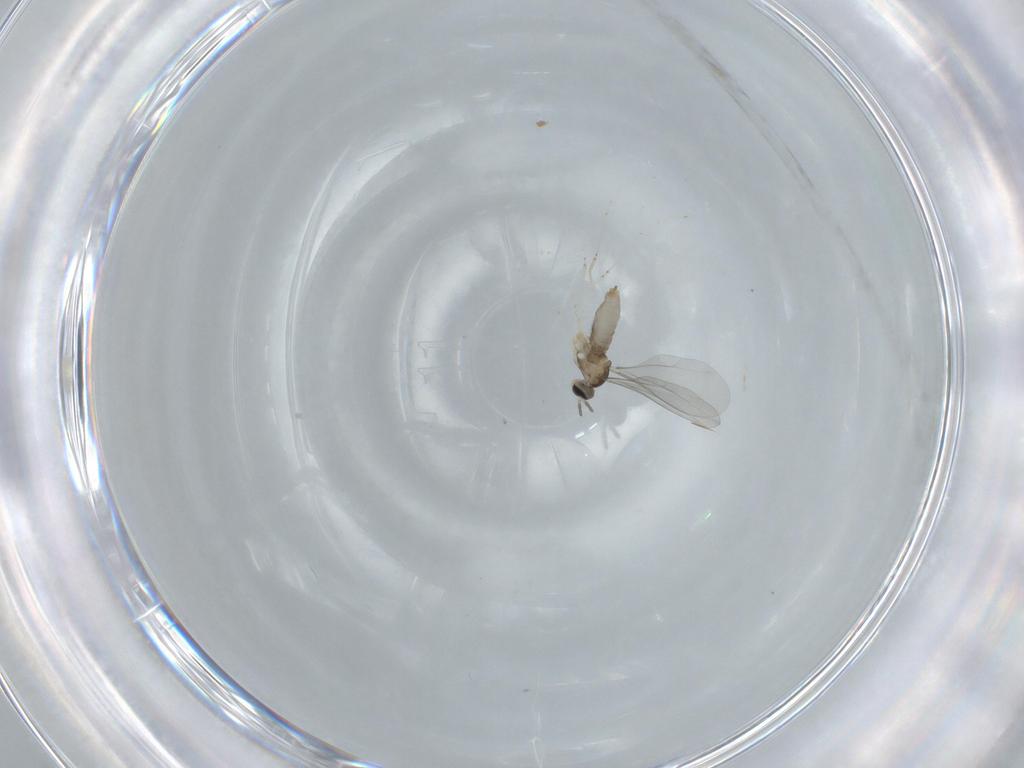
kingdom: Animalia
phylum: Arthropoda
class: Insecta
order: Diptera
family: Cecidomyiidae
